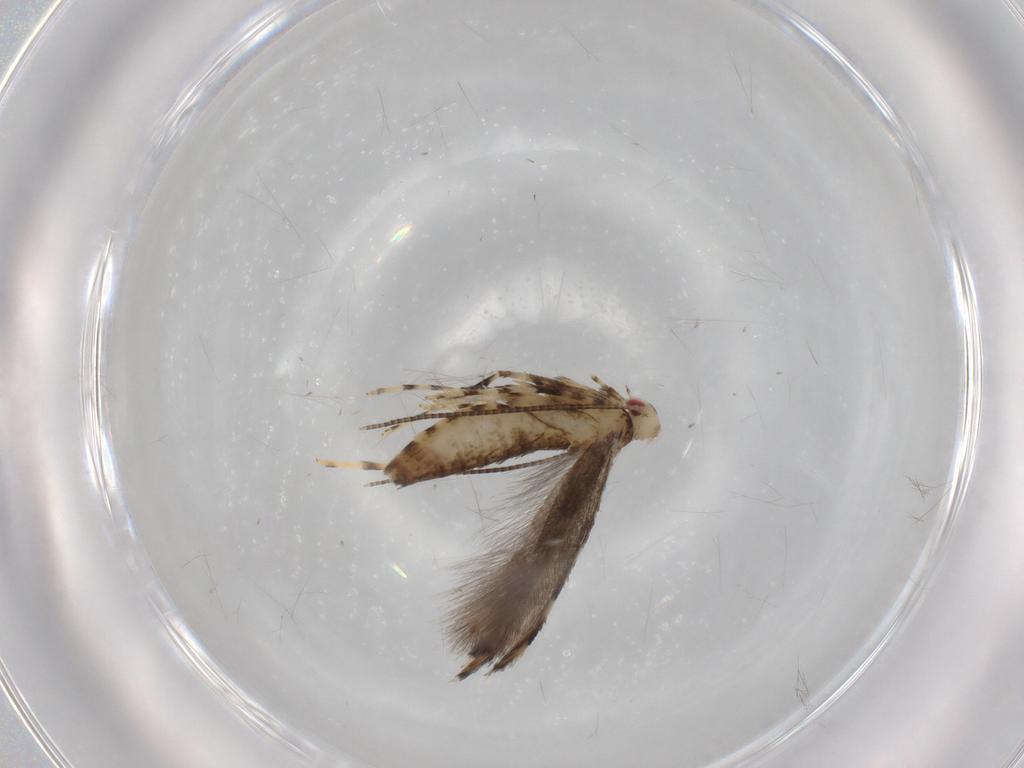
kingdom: Animalia
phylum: Arthropoda
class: Insecta
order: Lepidoptera
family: Gracillariidae
